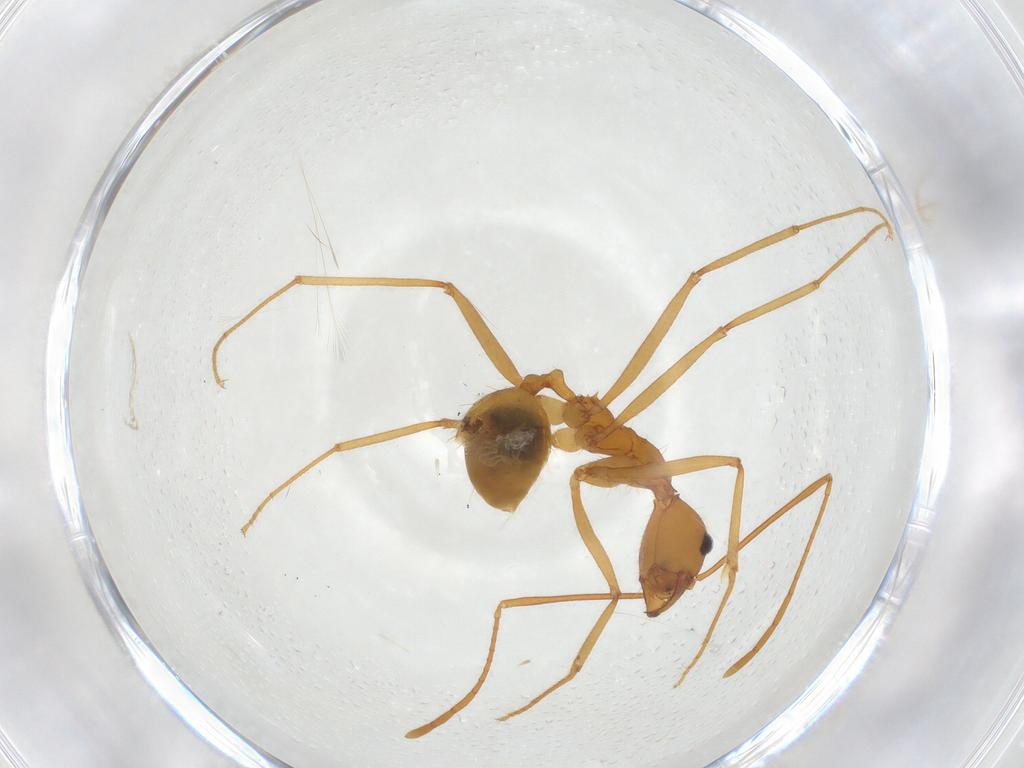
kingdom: Animalia
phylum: Arthropoda
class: Insecta
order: Hymenoptera
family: Formicidae
